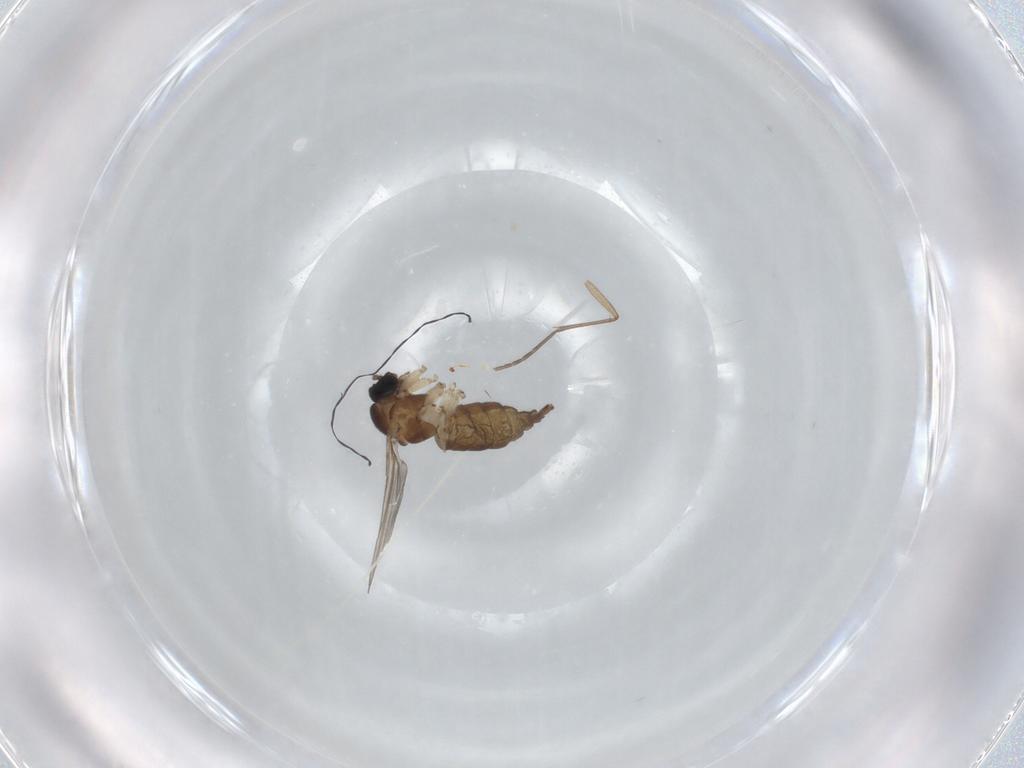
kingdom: Animalia
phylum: Arthropoda
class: Insecta
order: Diptera
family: Sciaridae
